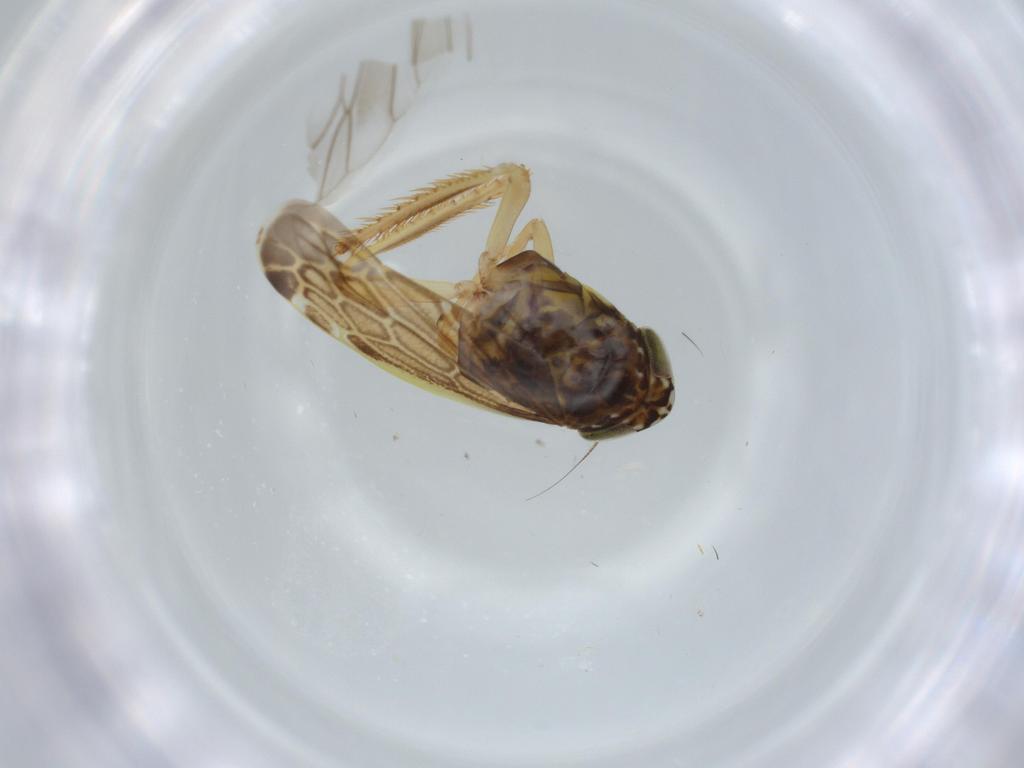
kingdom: Animalia
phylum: Arthropoda
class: Insecta
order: Hemiptera
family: Cicadellidae
